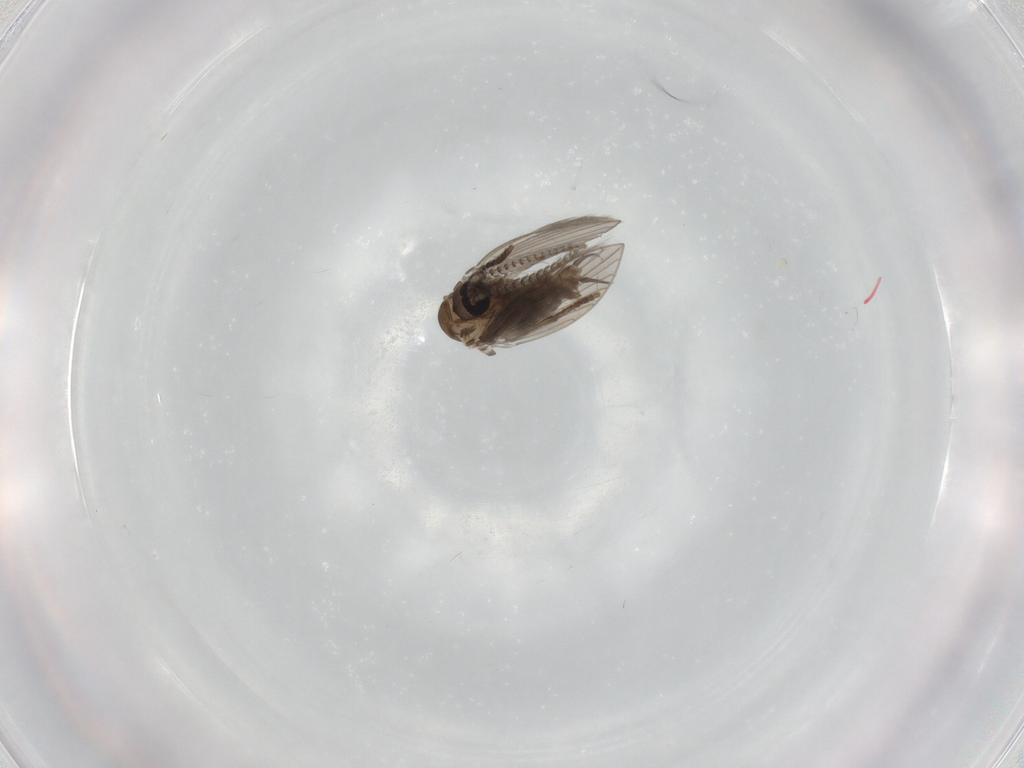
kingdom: Animalia
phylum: Arthropoda
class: Insecta
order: Diptera
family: Psychodidae
